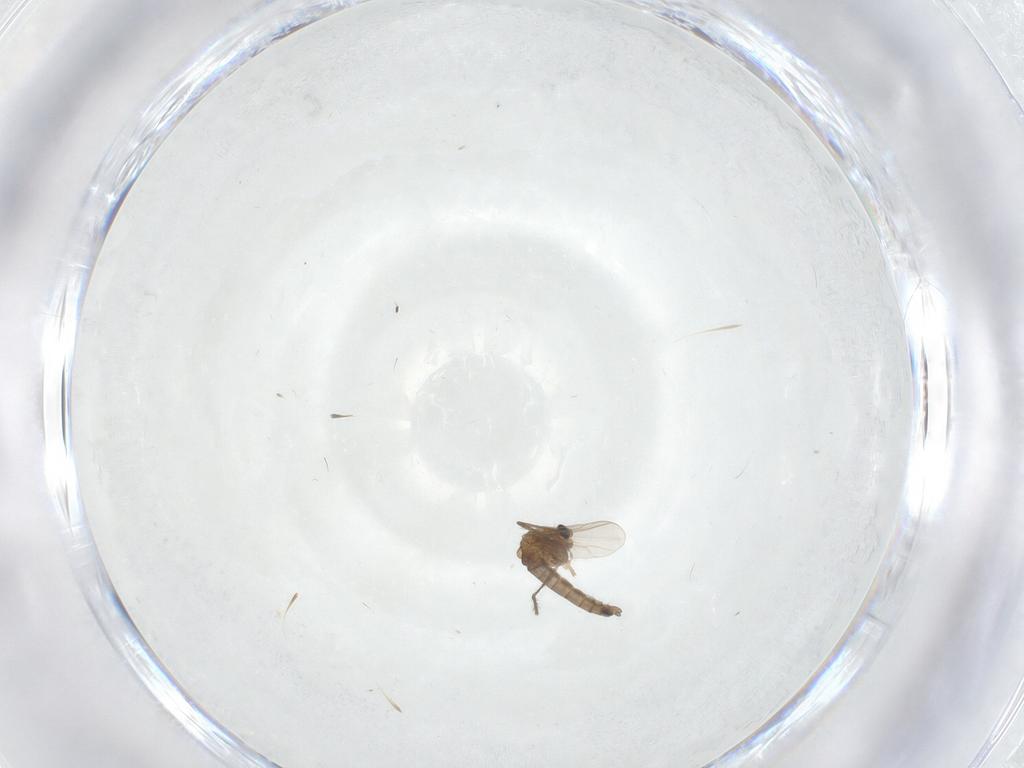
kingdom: Animalia
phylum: Arthropoda
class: Insecta
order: Diptera
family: Chironomidae
